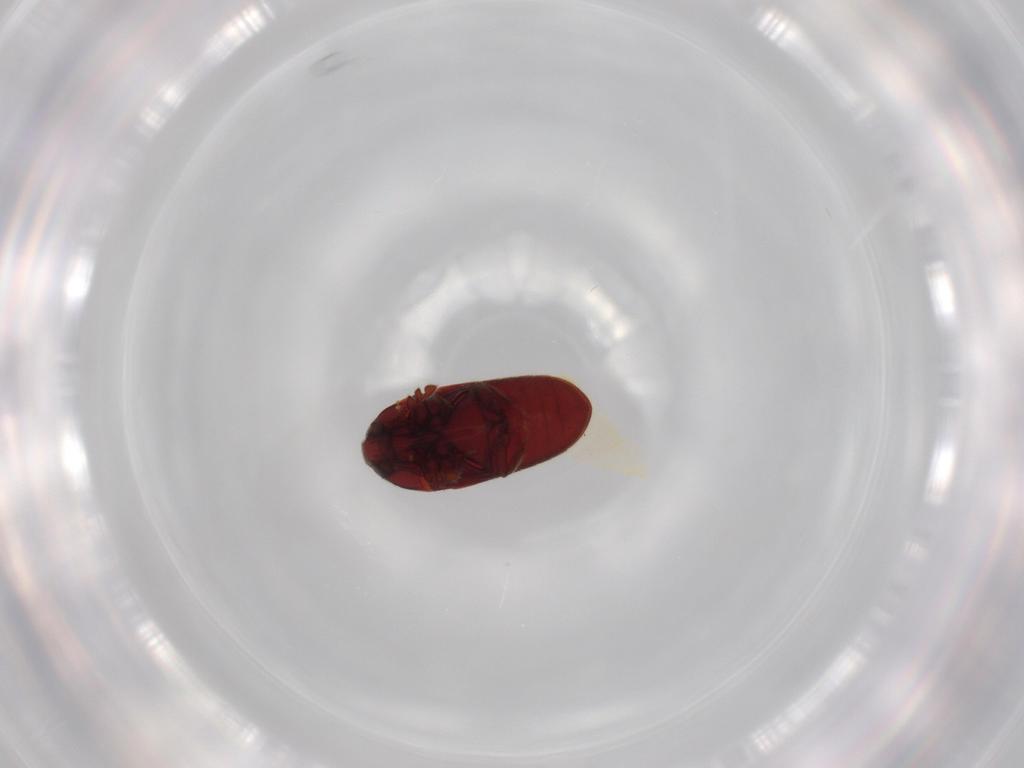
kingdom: Animalia
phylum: Arthropoda
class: Insecta
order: Coleoptera
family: Throscidae
